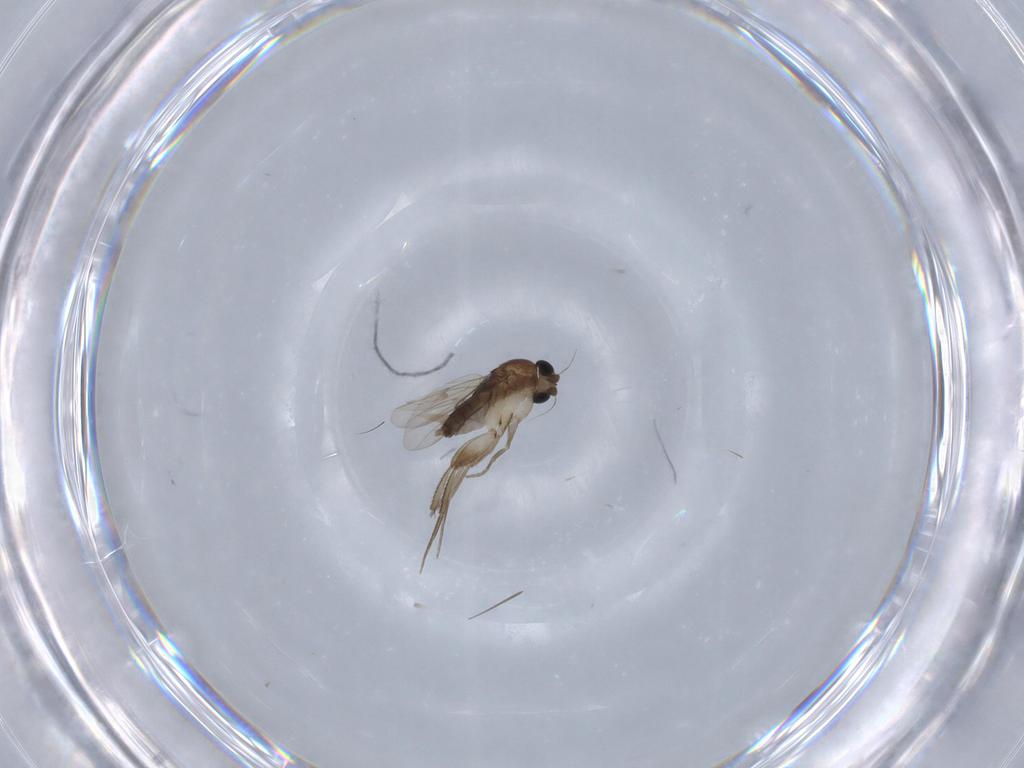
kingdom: Animalia
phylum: Arthropoda
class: Insecta
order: Diptera
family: Phoridae
